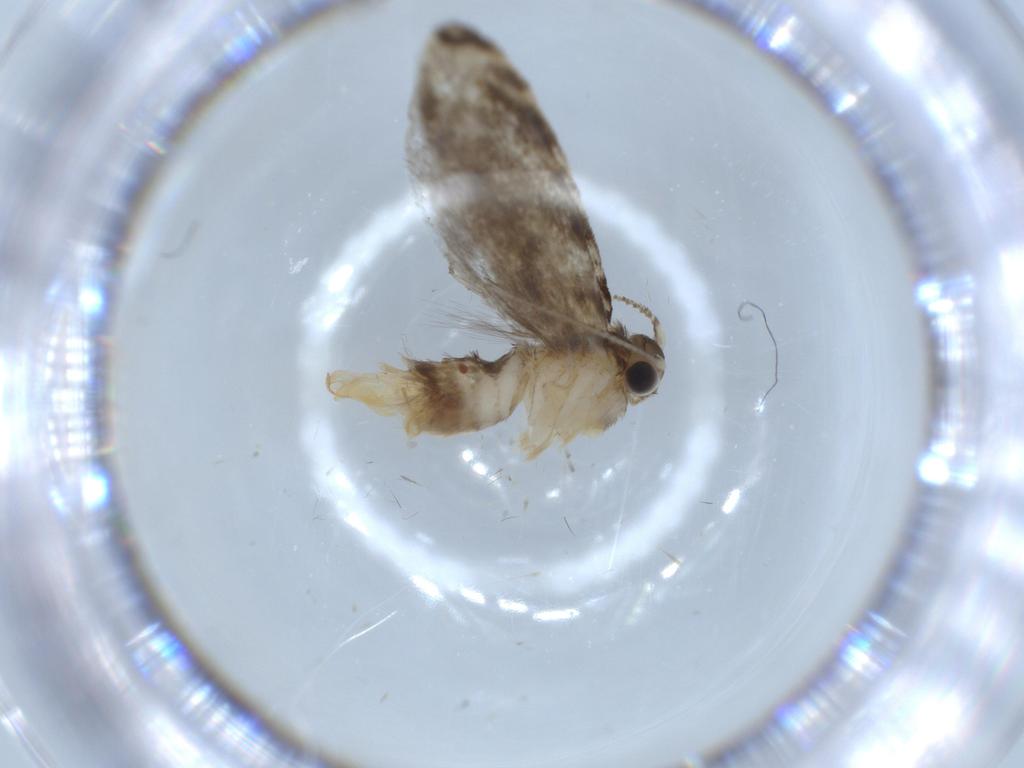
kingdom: Animalia
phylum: Arthropoda
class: Insecta
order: Lepidoptera
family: Tineidae
